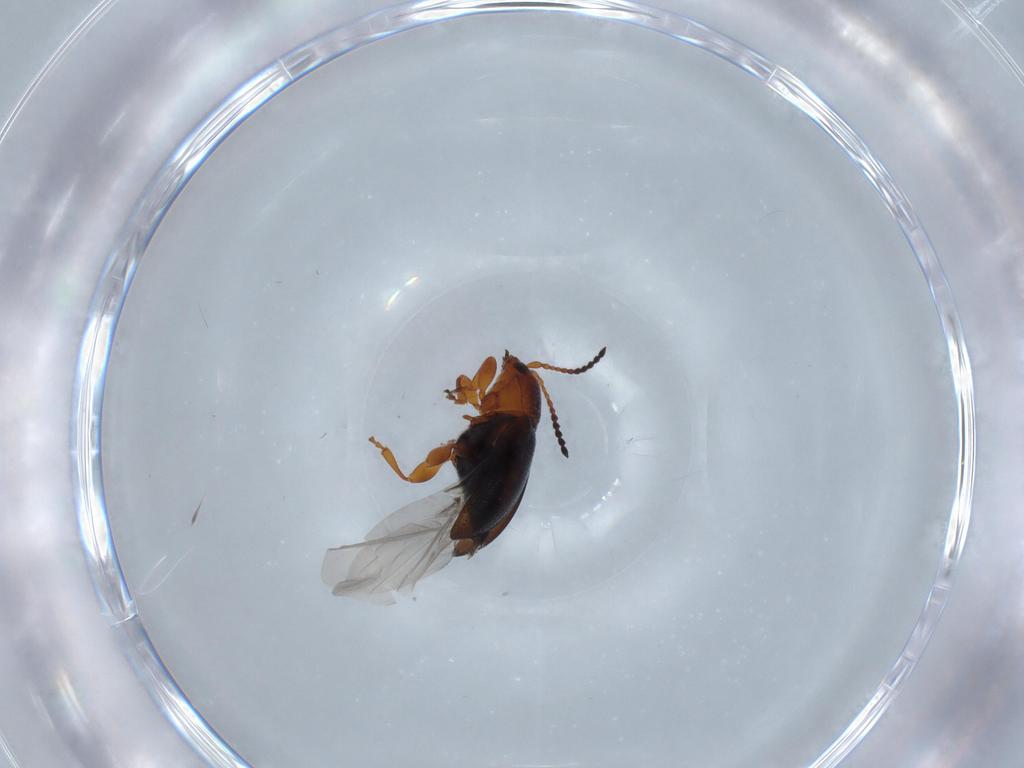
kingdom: Animalia
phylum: Arthropoda
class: Insecta
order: Coleoptera
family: Chrysomelidae
